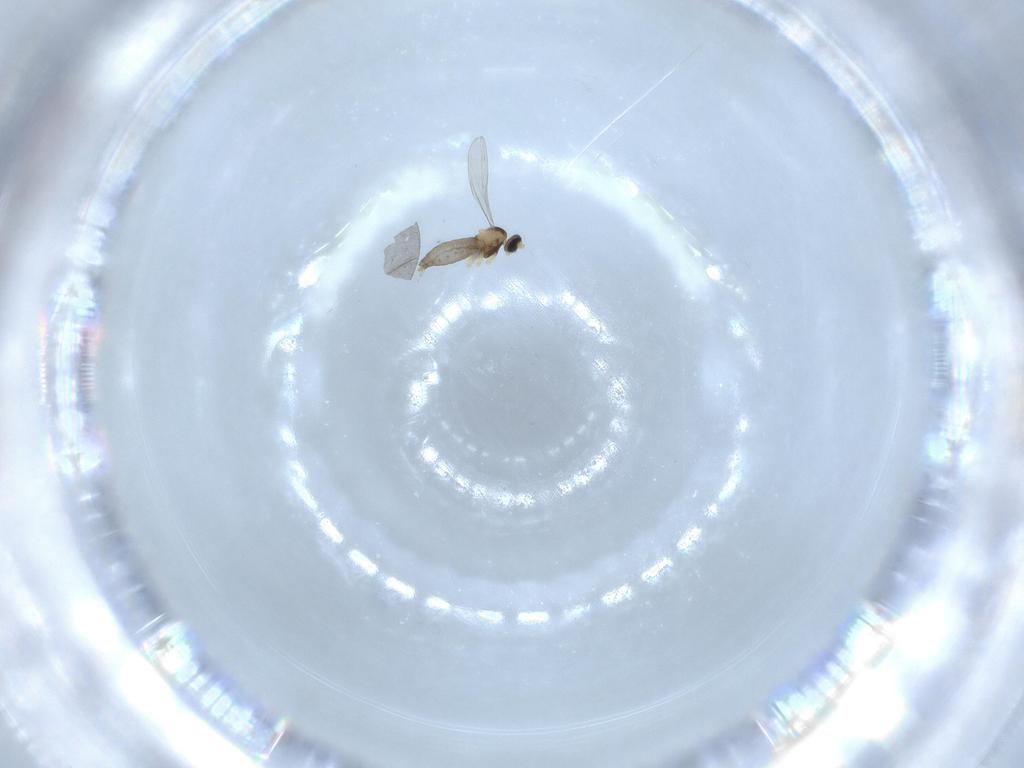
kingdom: Animalia
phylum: Arthropoda
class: Insecta
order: Diptera
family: Cecidomyiidae
